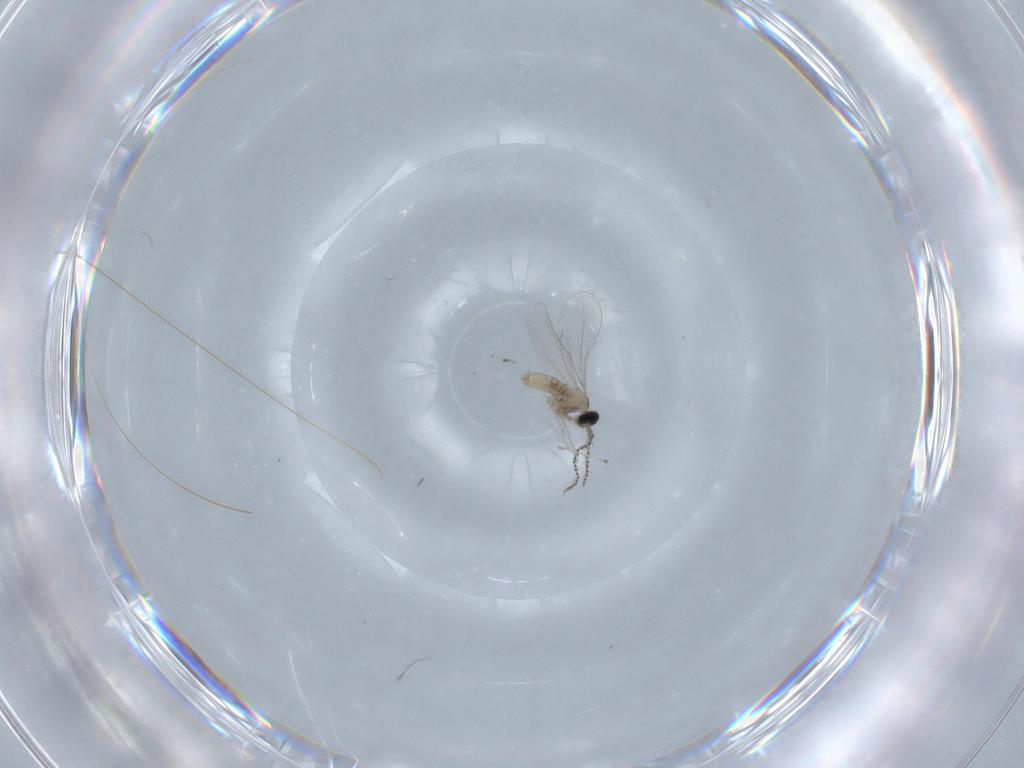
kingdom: Animalia
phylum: Arthropoda
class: Insecta
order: Diptera
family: Cecidomyiidae
